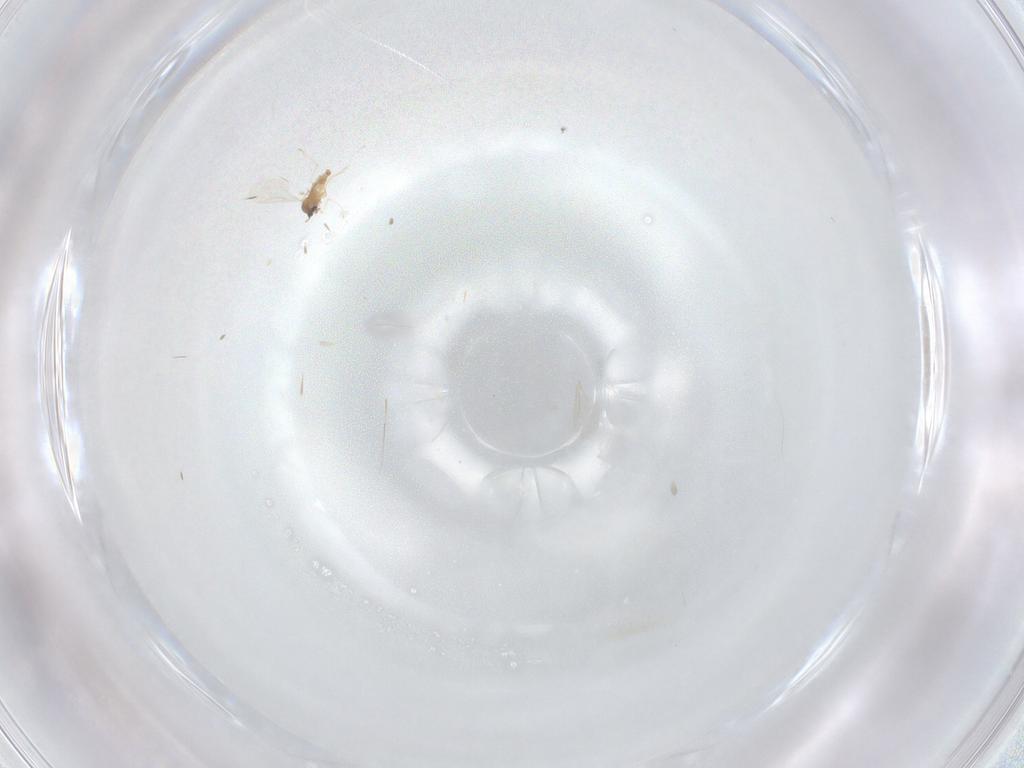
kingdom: Animalia
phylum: Arthropoda
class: Insecta
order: Diptera
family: Cecidomyiidae
